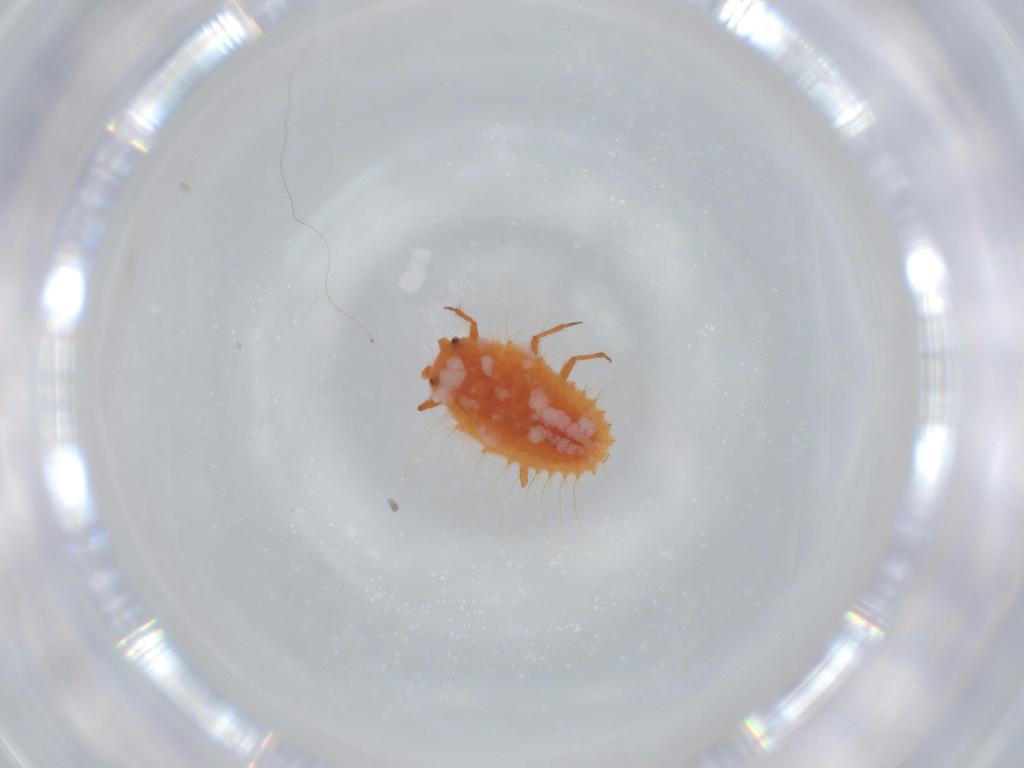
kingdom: Animalia
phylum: Arthropoda
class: Insecta
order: Hemiptera
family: Coccoidea_incertae_sedis
